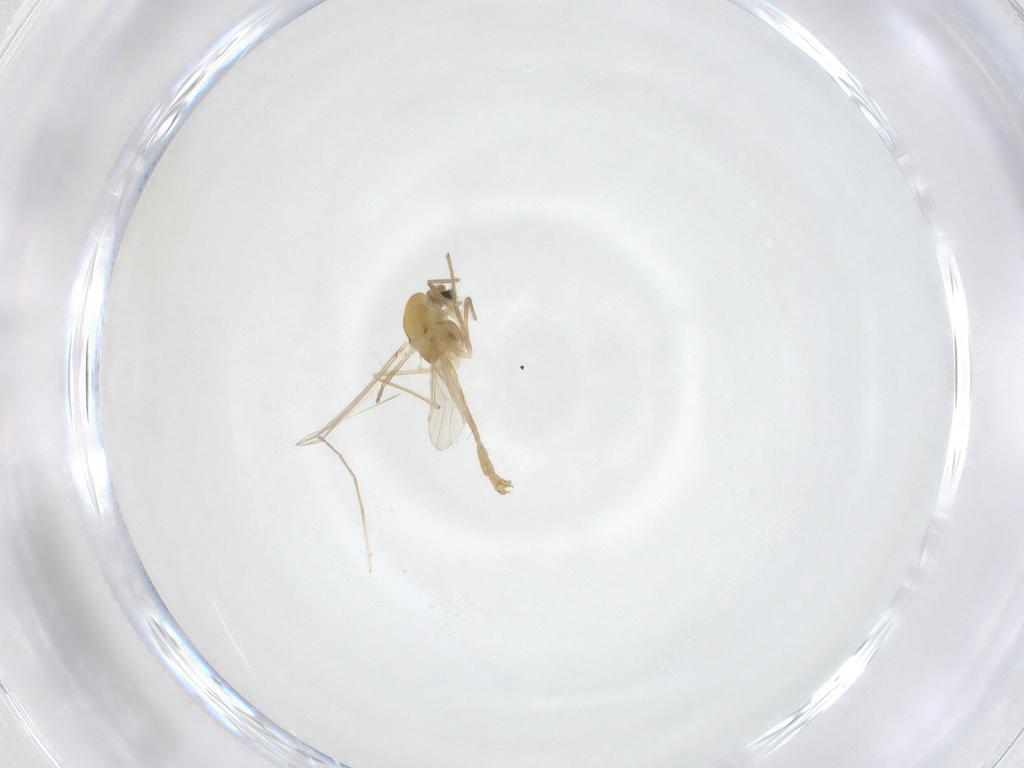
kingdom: Animalia
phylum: Arthropoda
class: Insecta
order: Diptera
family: Chironomidae
